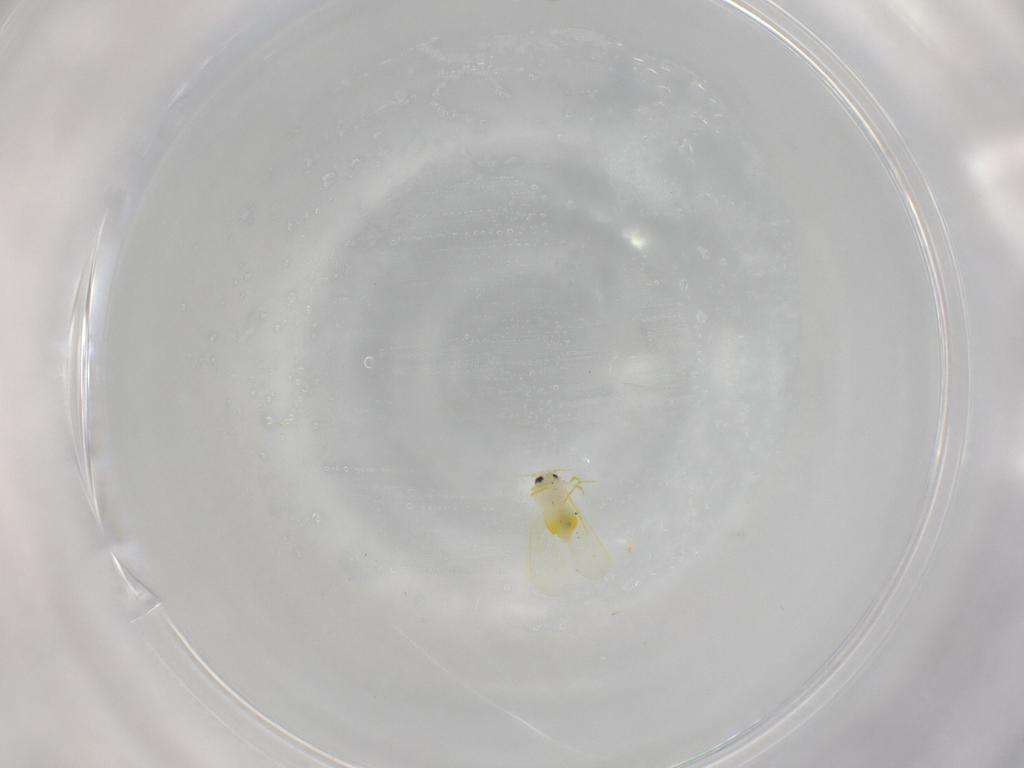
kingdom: Animalia
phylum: Arthropoda
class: Insecta
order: Hemiptera
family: Aleyrodidae
